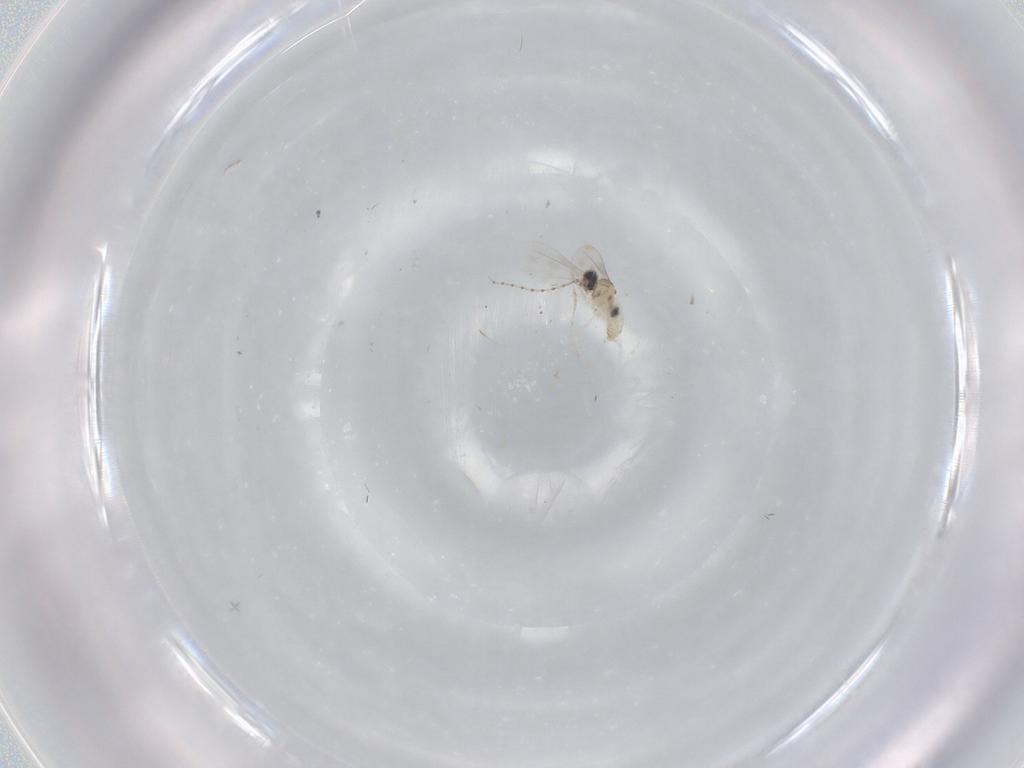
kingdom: Animalia
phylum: Arthropoda
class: Insecta
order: Diptera
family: Cecidomyiidae
